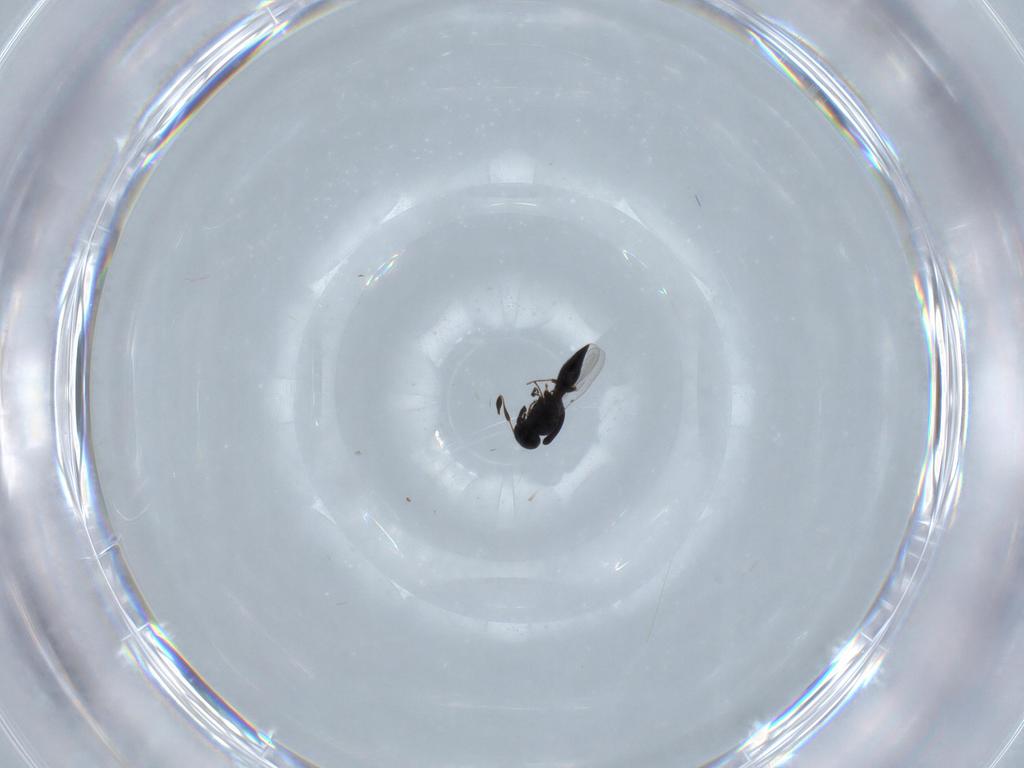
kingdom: Animalia
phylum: Arthropoda
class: Insecta
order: Hymenoptera
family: Platygastridae
